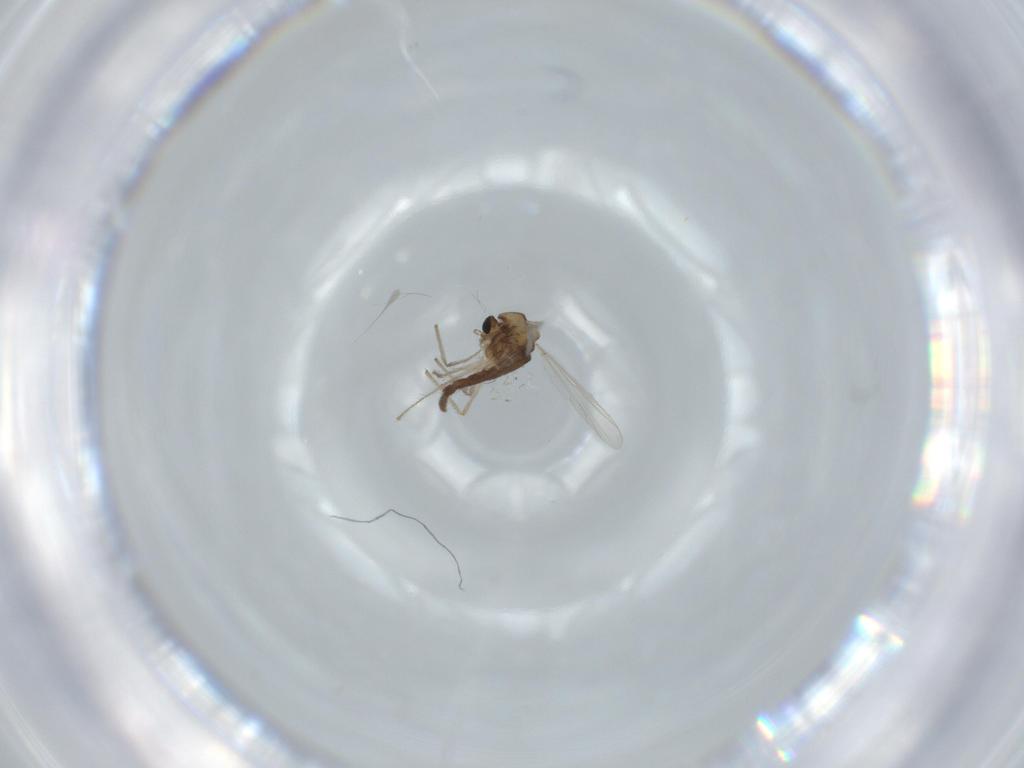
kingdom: Animalia
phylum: Arthropoda
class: Insecta
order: Diptera
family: Chironomidae
